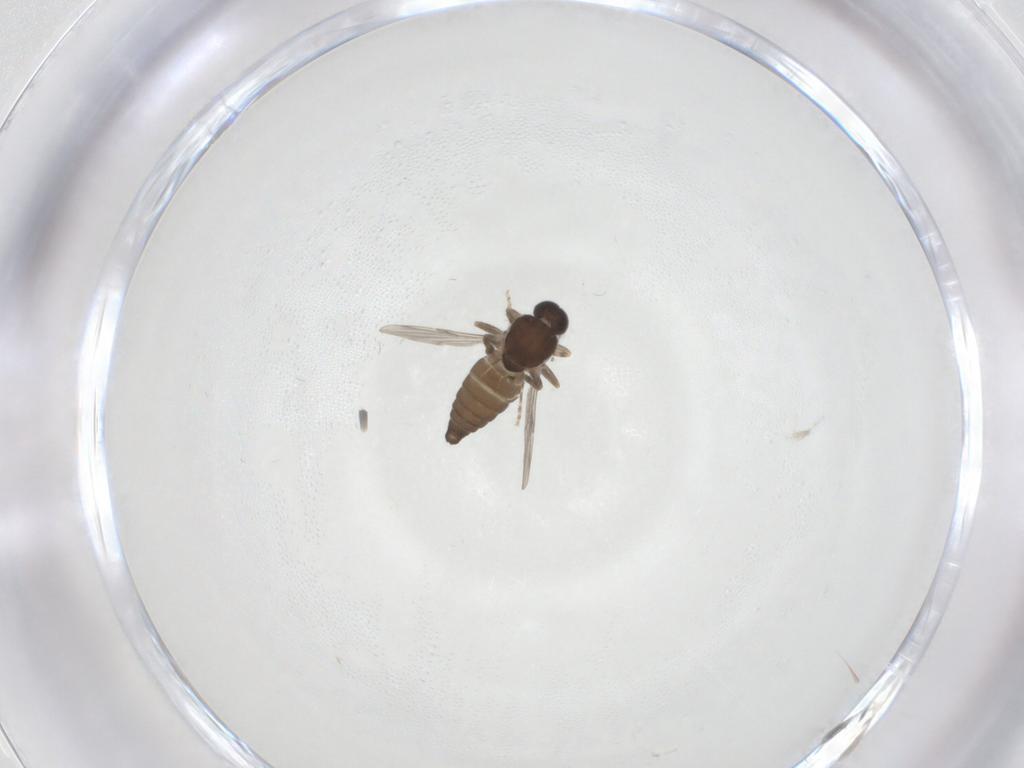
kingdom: Animalia
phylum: Arthropoda
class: Insecta
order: Diptera
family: Ceratopogonidae
